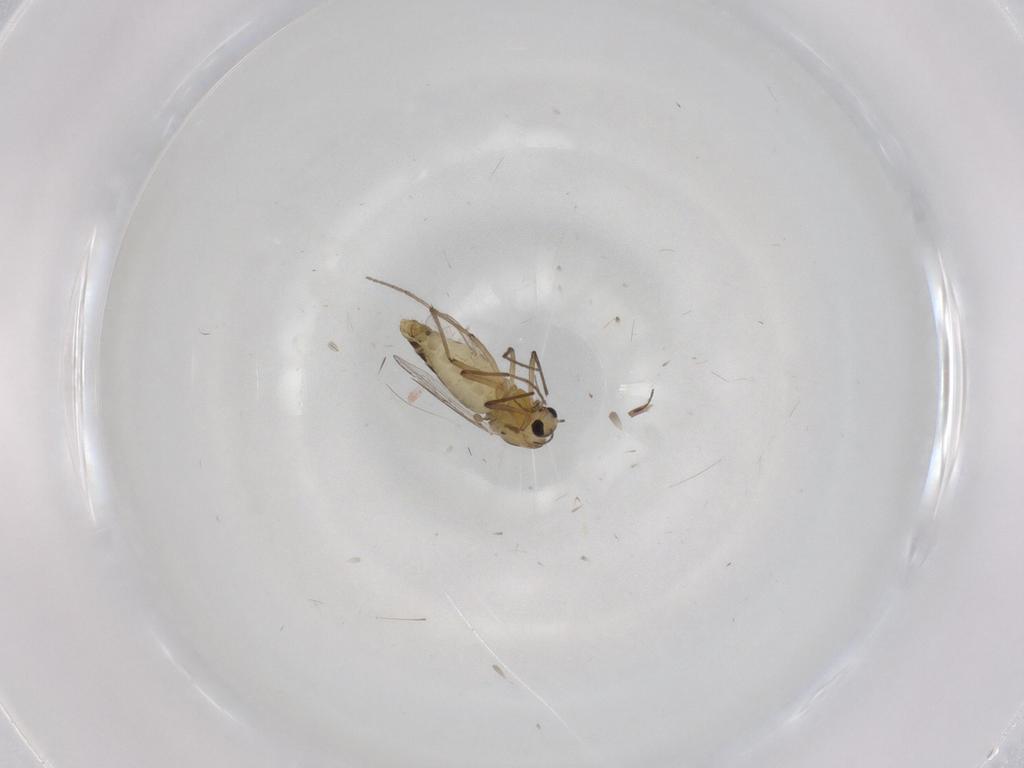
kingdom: Animalia
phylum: Arthropoda
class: Insecta
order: Diptera
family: Chironomidae
